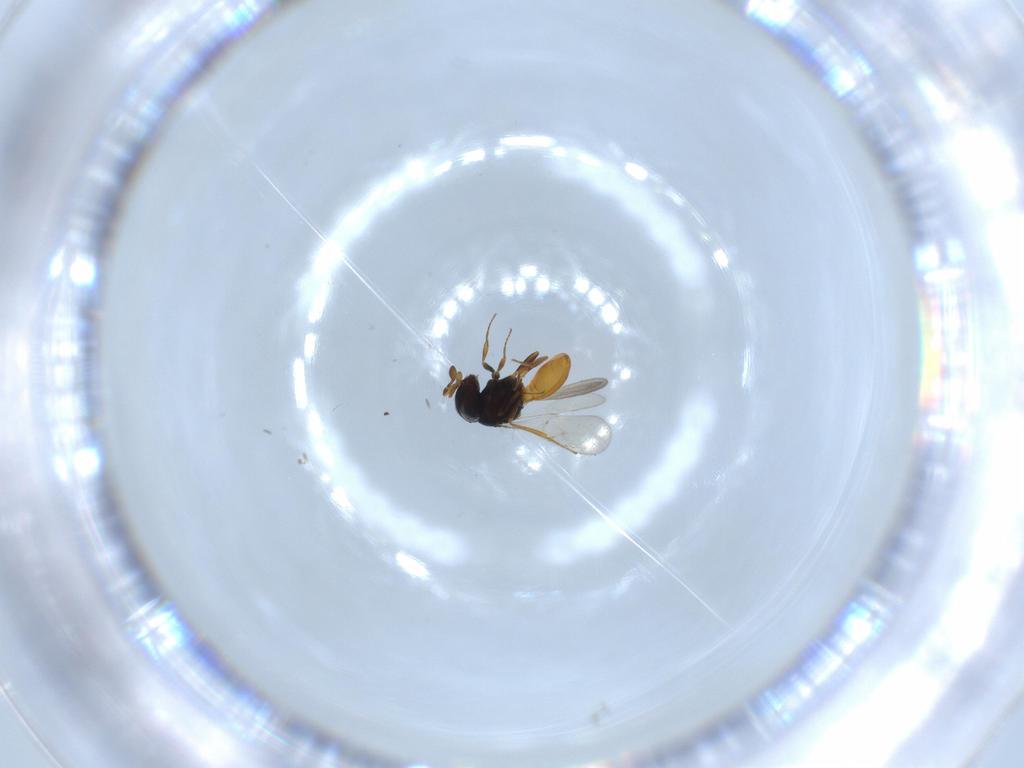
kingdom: Animalia
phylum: Arthropoda
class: Insecta
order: Hymenoptera
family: Scelionidae
